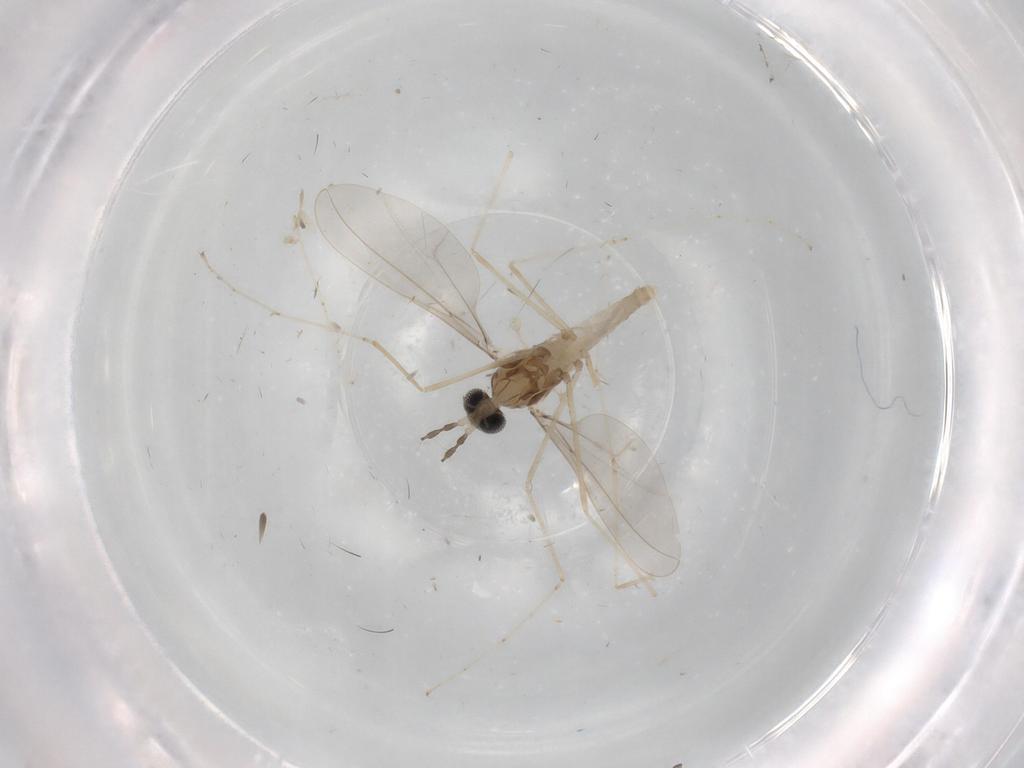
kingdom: Animalia
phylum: Arthropoda
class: Insecta
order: Diptera
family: Cecidomyiidae
